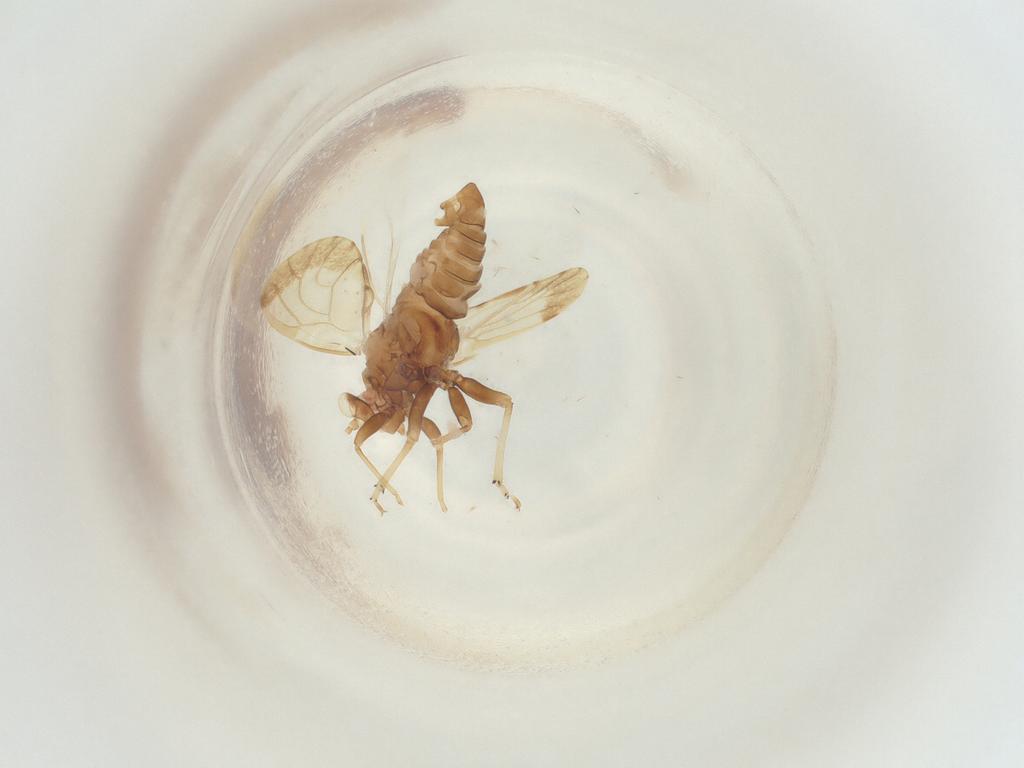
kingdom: Animalia
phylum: Arthropoda
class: Insecta
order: Hemiptera
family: Psyllidae
